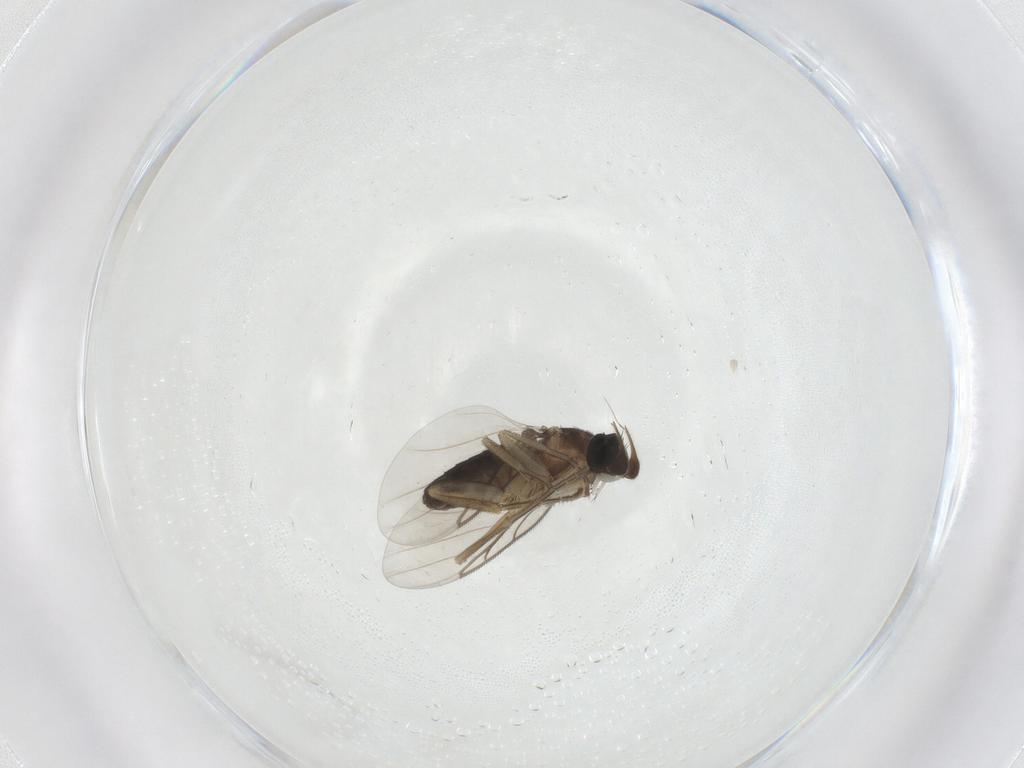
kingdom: Animalia
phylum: Arthropoda
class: Insecta
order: Diptera
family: Phoridae
